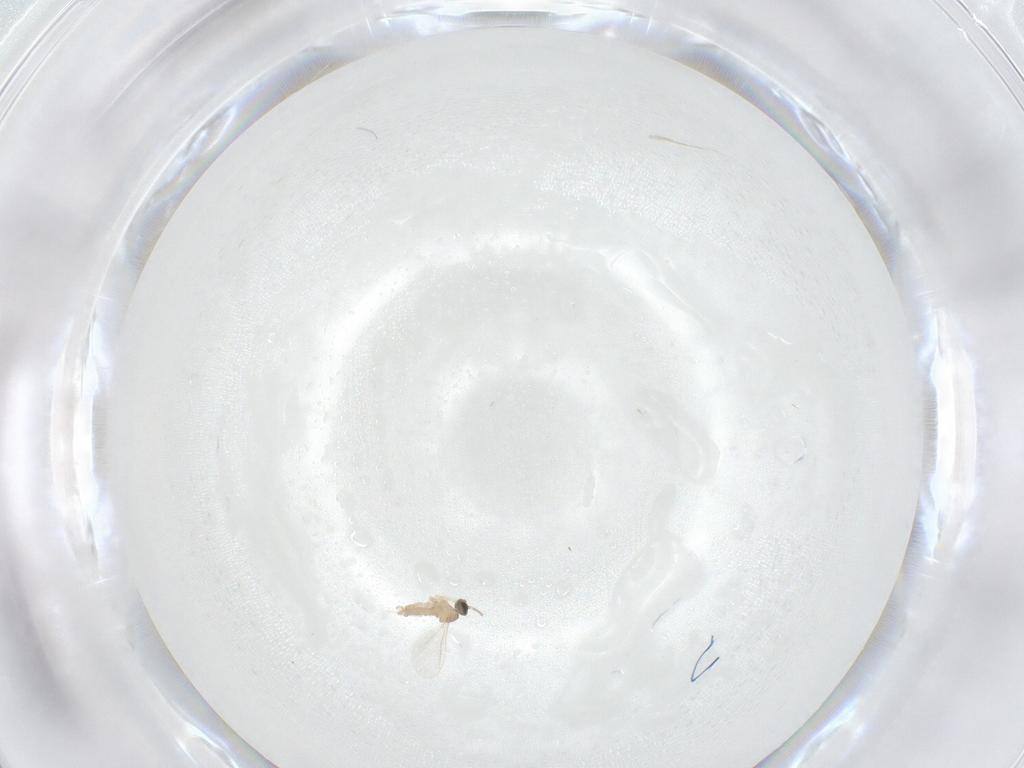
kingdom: Animalia
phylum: Arthropoda
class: Insecta
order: Diptera
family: Cecidomyiidae
